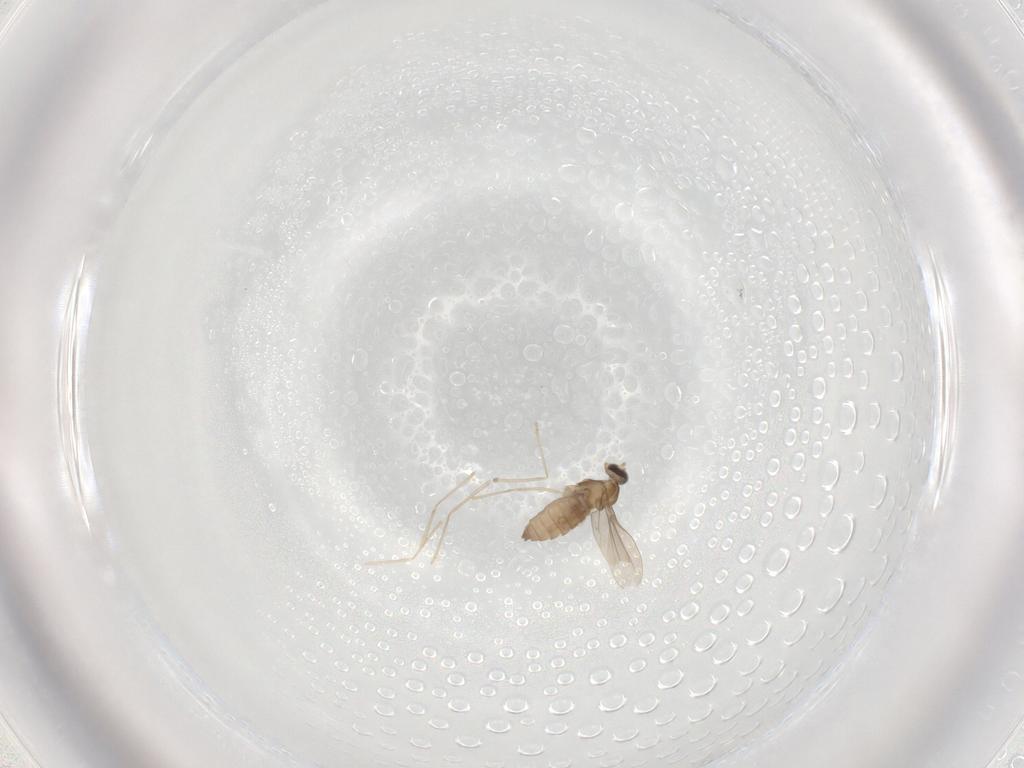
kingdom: Animalia
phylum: Arthropoda
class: Insecta
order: Diptera
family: Cecidomyiidae
